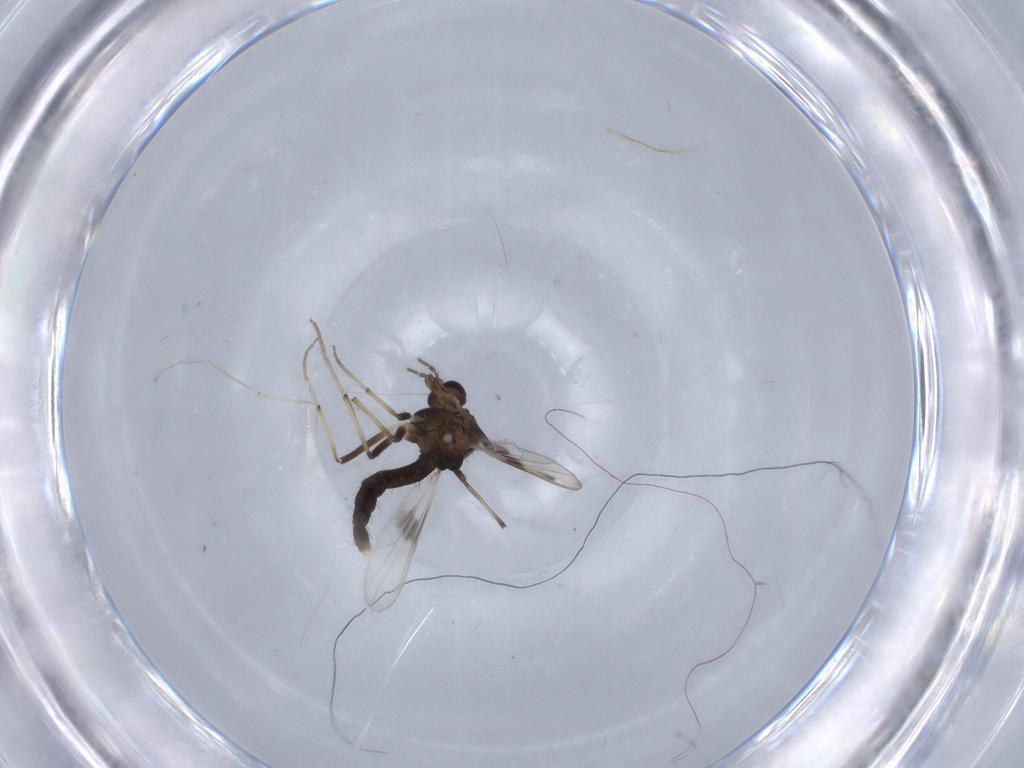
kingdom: Animalia
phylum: Arthropoda
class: Insecta
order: Diptera
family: Chironomidae
